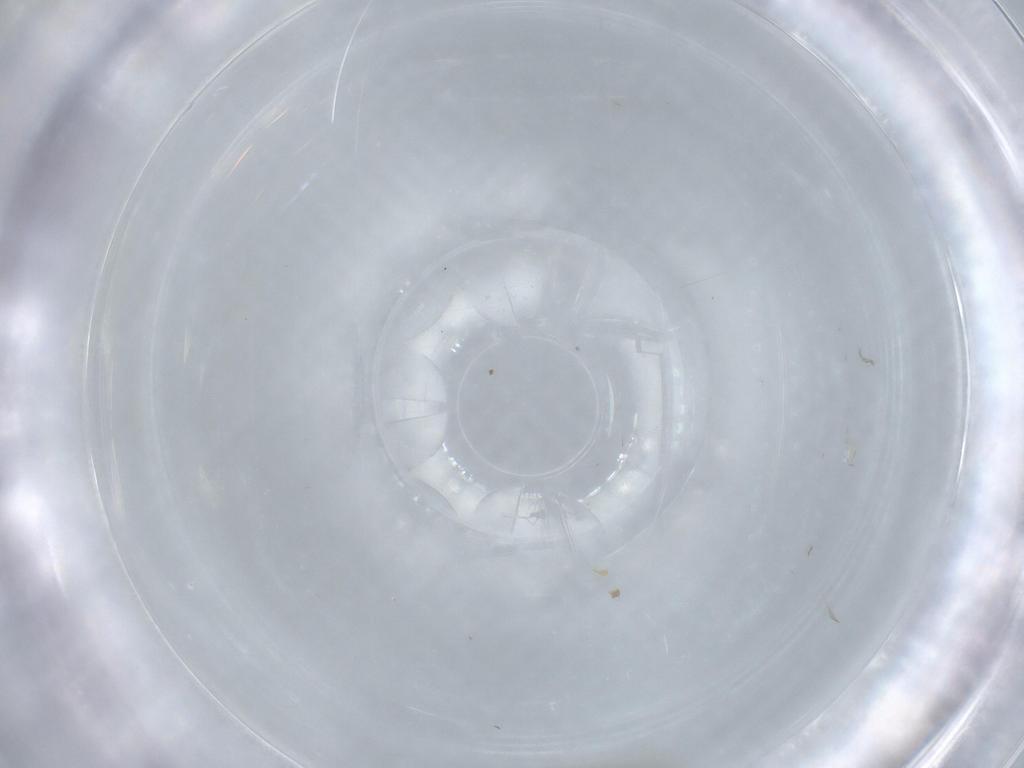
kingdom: Animalia
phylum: Arthropoda
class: Insecta
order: Diptera
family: Psychodidae
